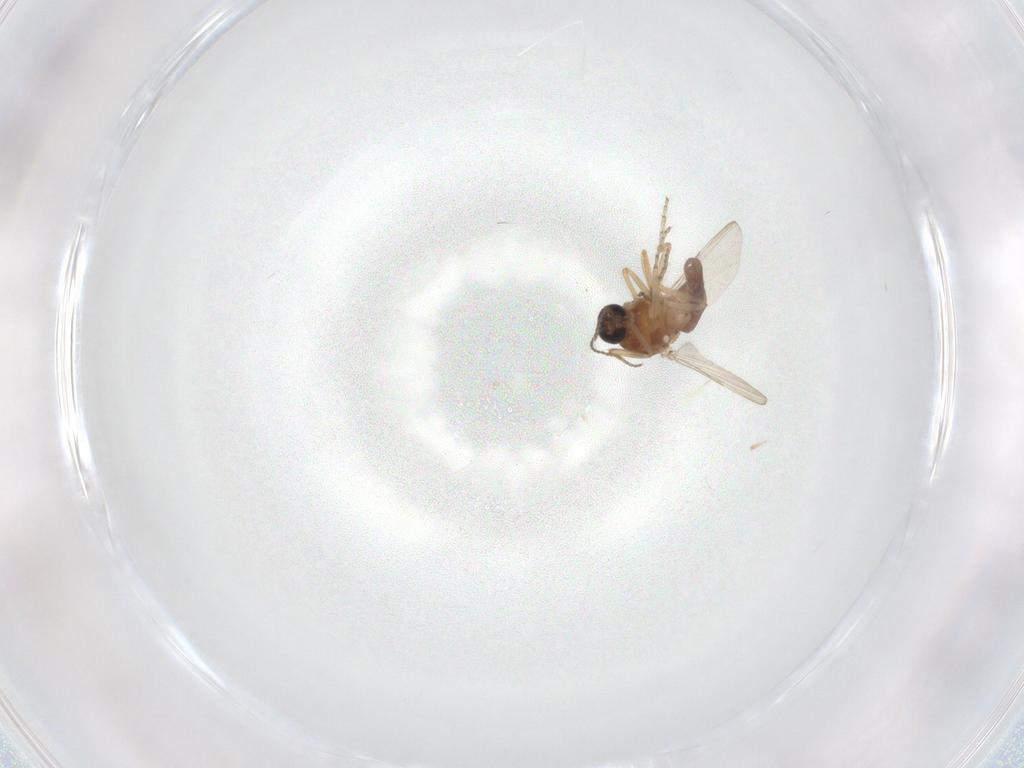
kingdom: Animalia
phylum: Arthropoda
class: Insecta
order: Diptera
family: Ceratopogonidae
